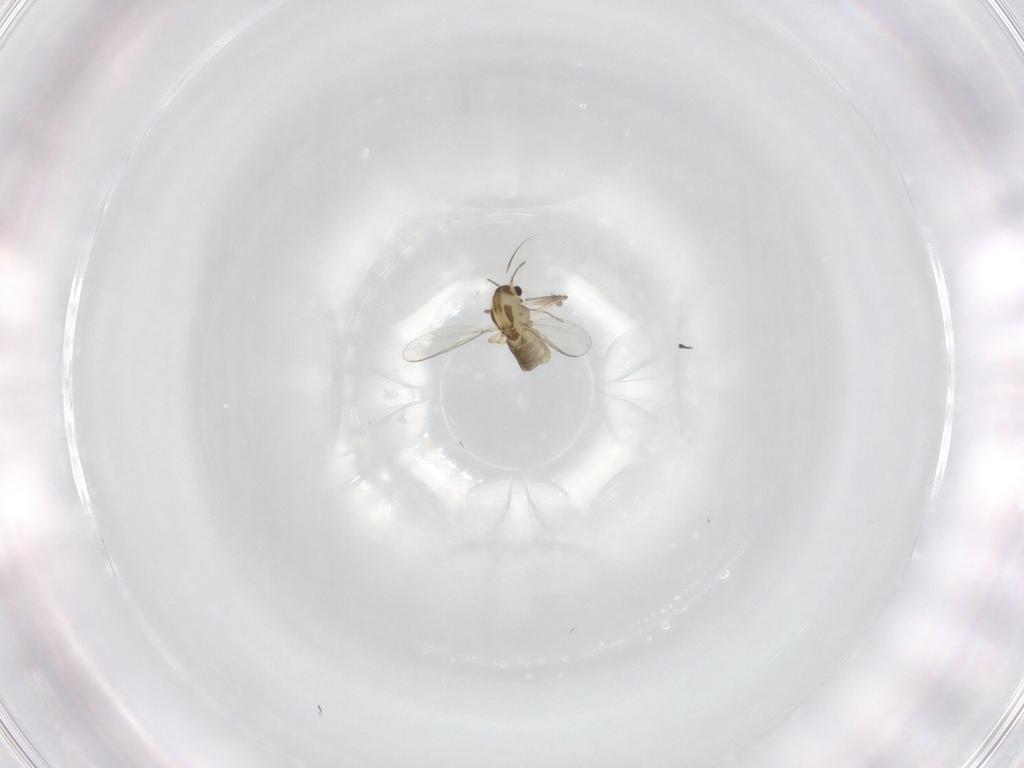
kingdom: Animalia
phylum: Arthropoda
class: Insecta
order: Diptera
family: Chironomidae
